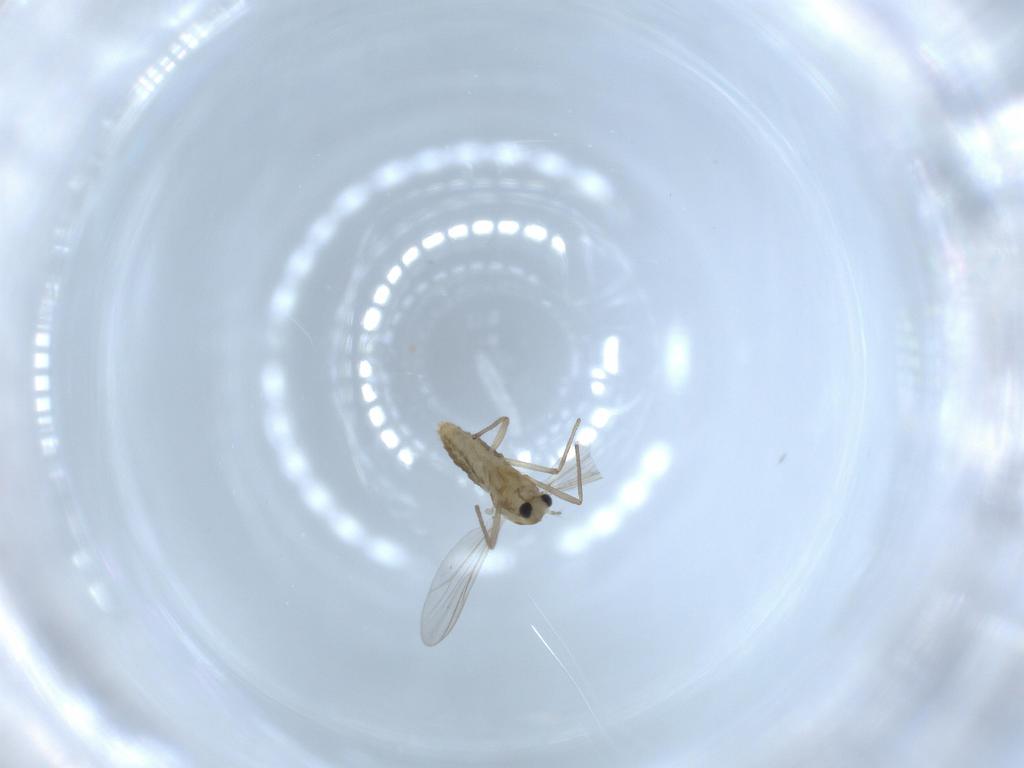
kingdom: Animalia
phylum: Arthropoda
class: Insecta
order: Diptera
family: Chironomidae
